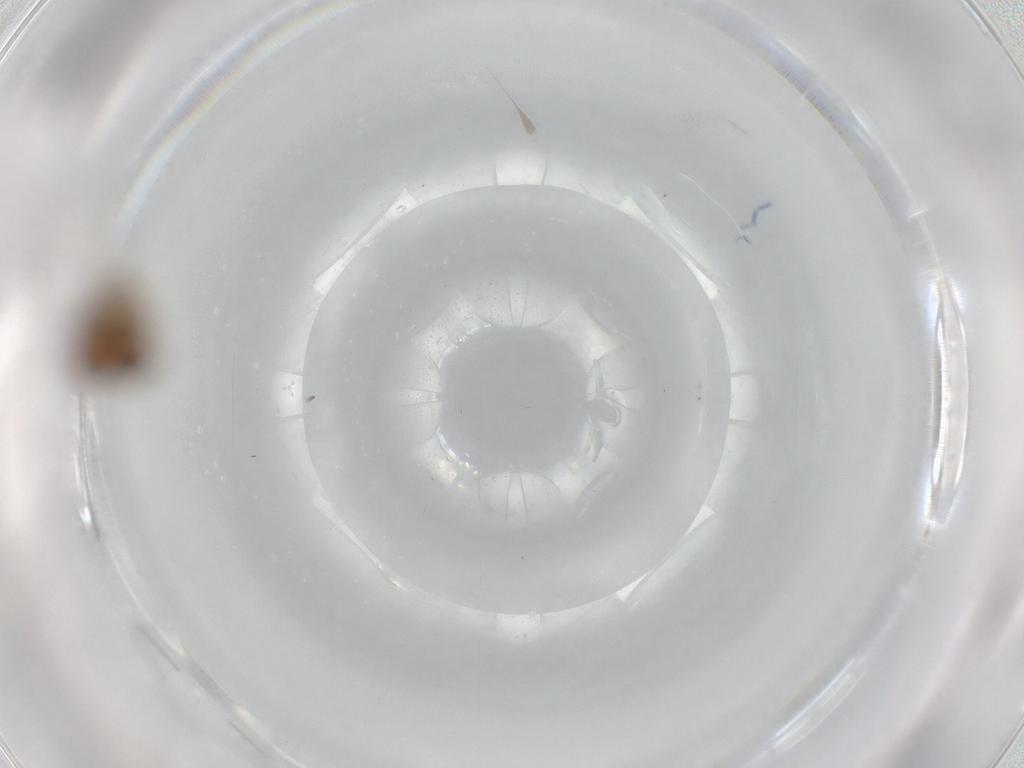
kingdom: Animalia
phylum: Arthropoda
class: Insecta
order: Diptera
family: Chironomidae
